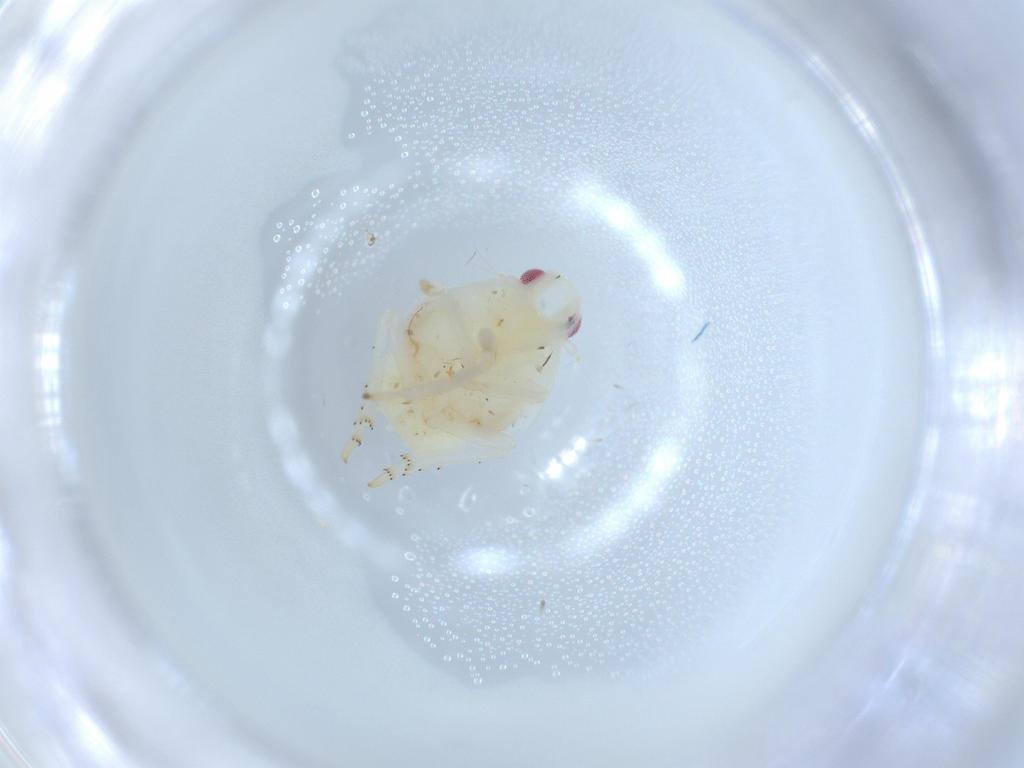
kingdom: Animalia
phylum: Arthropoda
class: Insecta
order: Hemiptera
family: Flatidae
